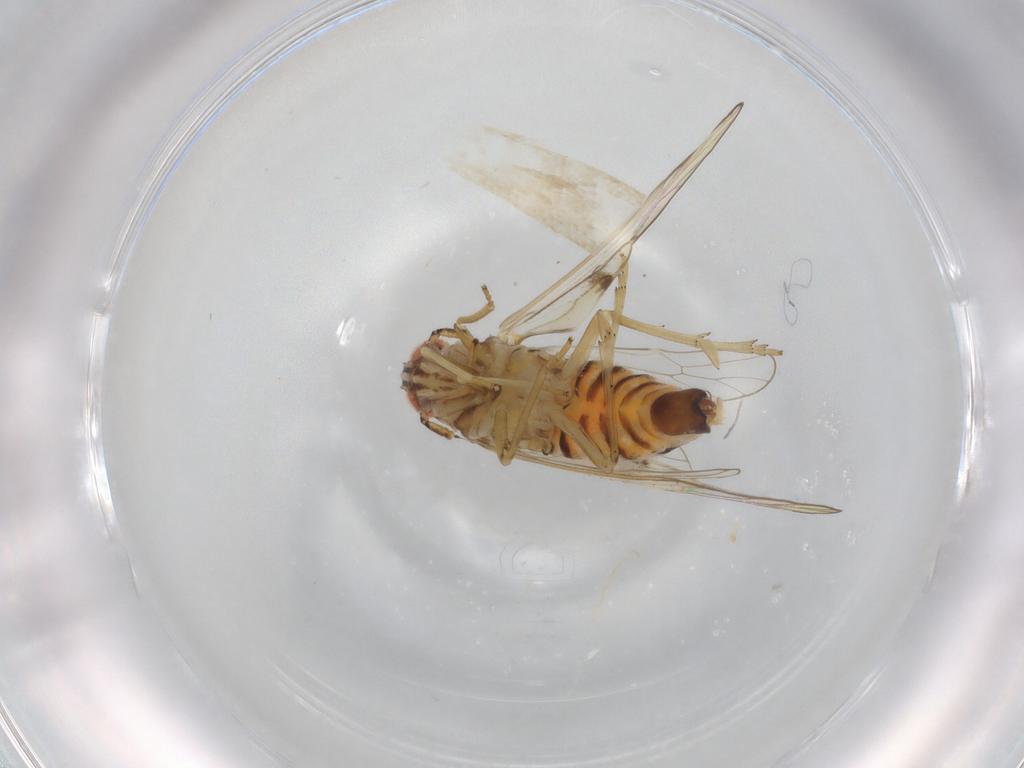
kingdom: Animalia
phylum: Arthropoda
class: Insecta
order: Hemiptera
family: Delphacidae
